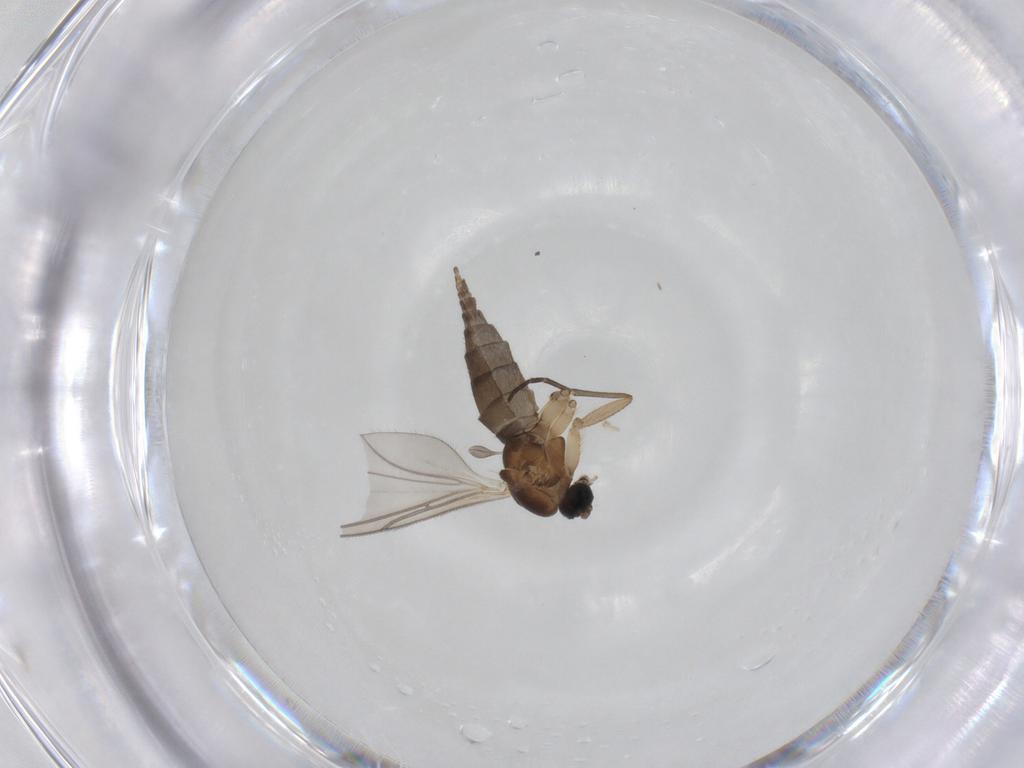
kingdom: Animalia
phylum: Arthropoda
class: Insecta
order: Diptera
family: Sciaridae
